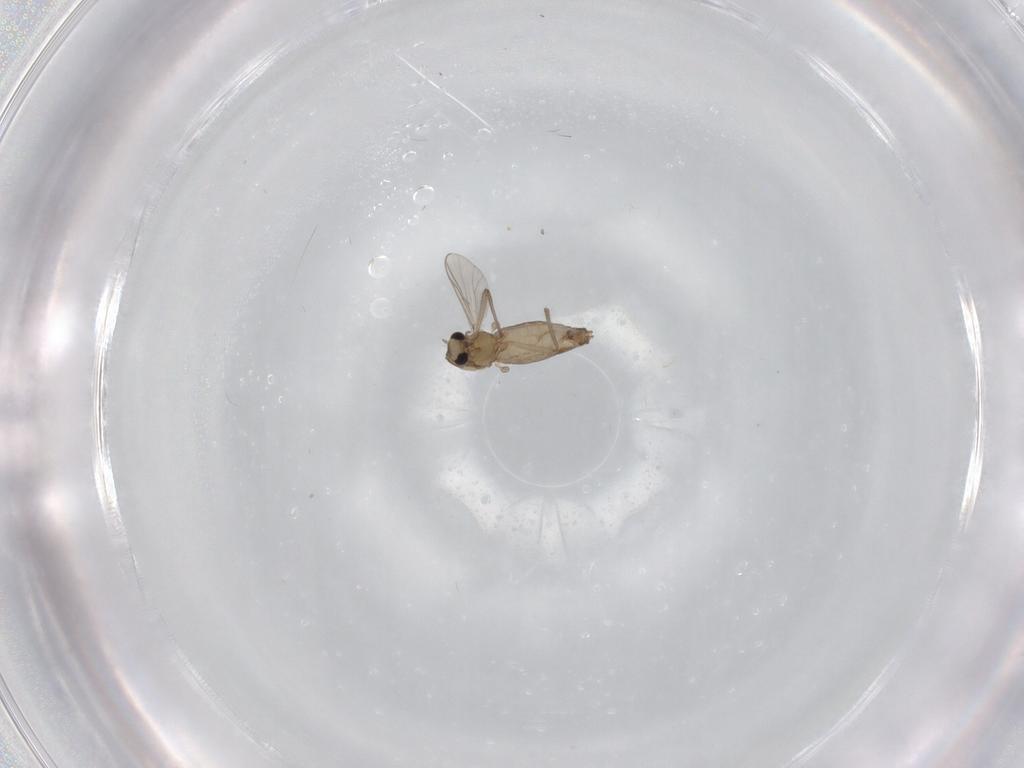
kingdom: Animalia
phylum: Arthropoda
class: Insecta
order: Diptera
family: Chironomidae
